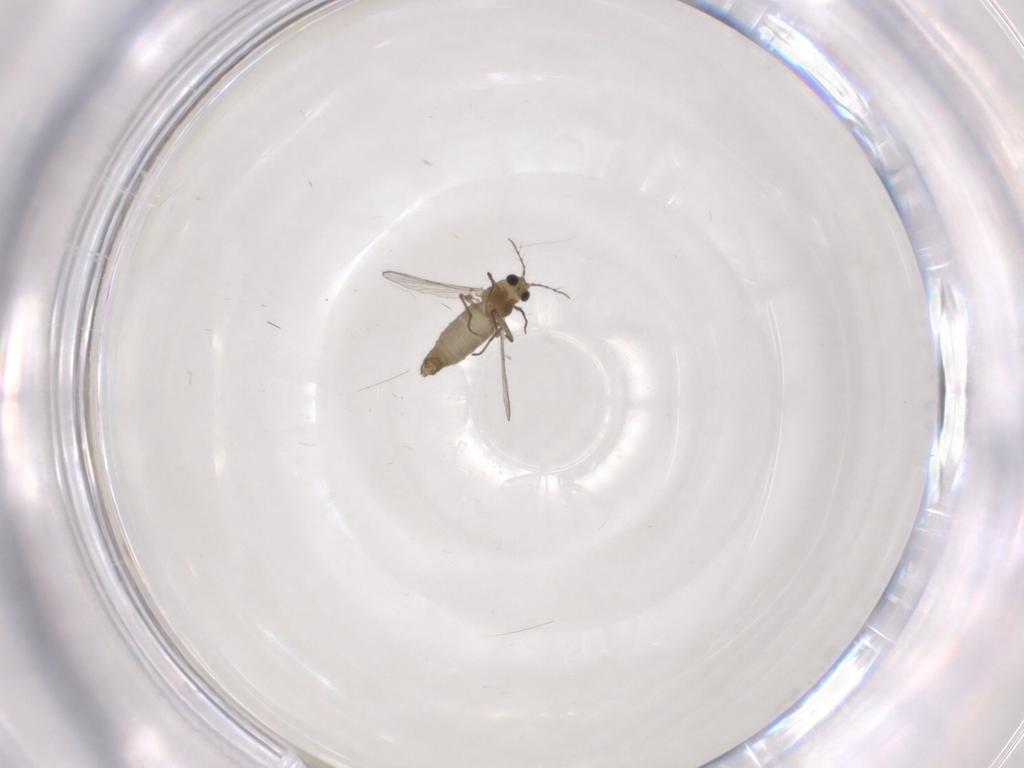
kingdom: Animalia
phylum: Arthropoda
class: Insecta
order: Diptera
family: Chironomidae
